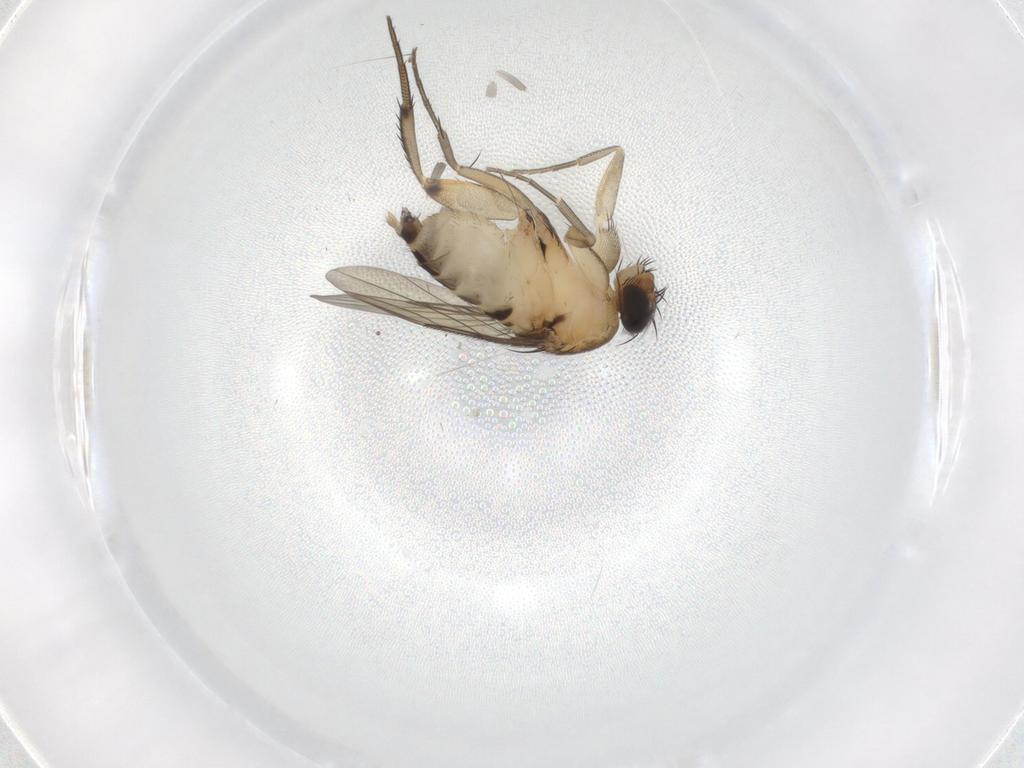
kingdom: Animalia
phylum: Arthropoda
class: Insecta
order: Diptera
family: Phoridae
